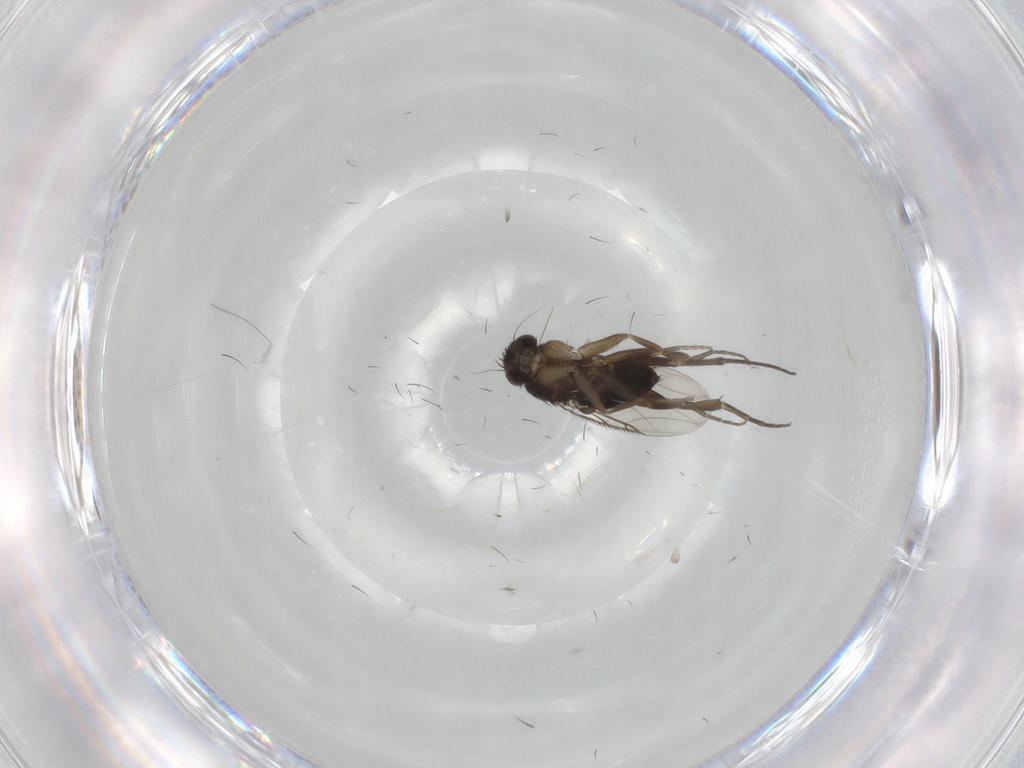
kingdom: Animalia
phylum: Arthropoda
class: Insecta
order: Diptera
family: Phoridae
